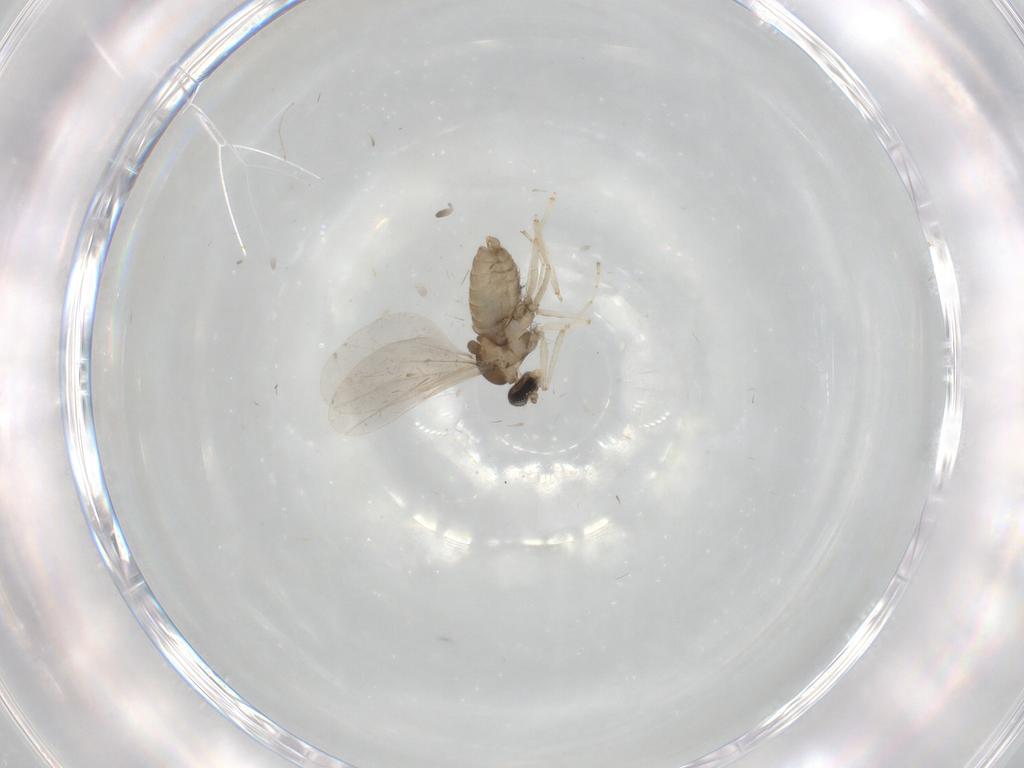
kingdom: Animalia
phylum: Arthropoda
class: Insecta
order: Diptera
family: Cecidomyiidae
